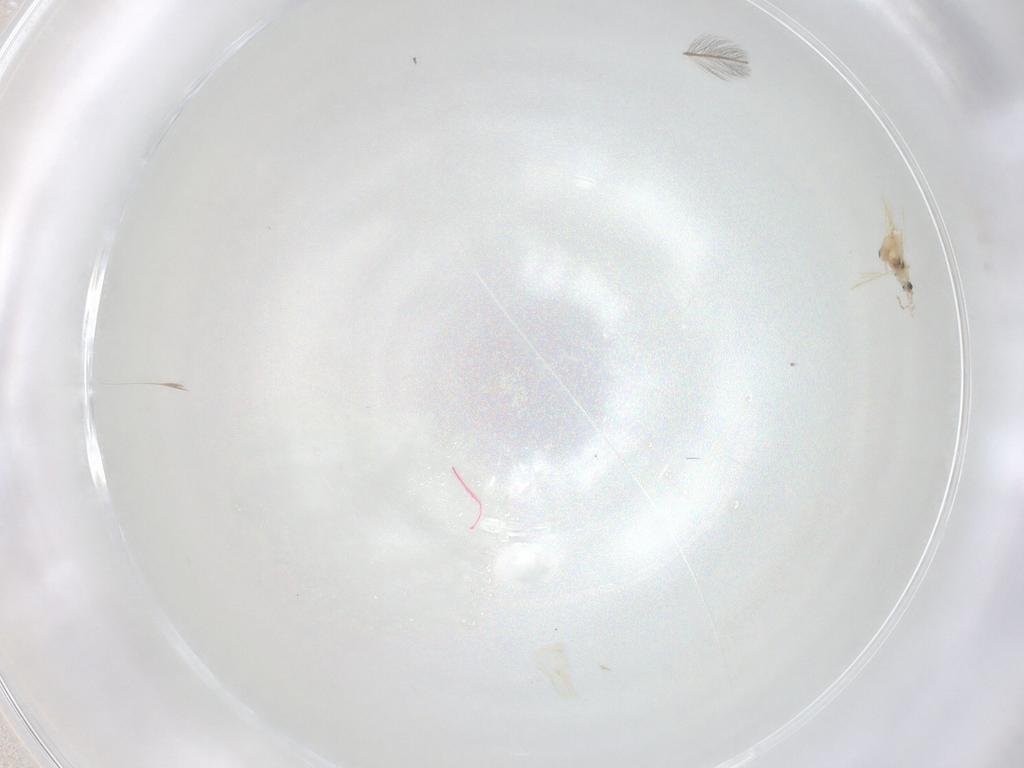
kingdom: Animalia
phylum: Arthropoda
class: Insecta
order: Diptera
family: Cecidomyiidae
